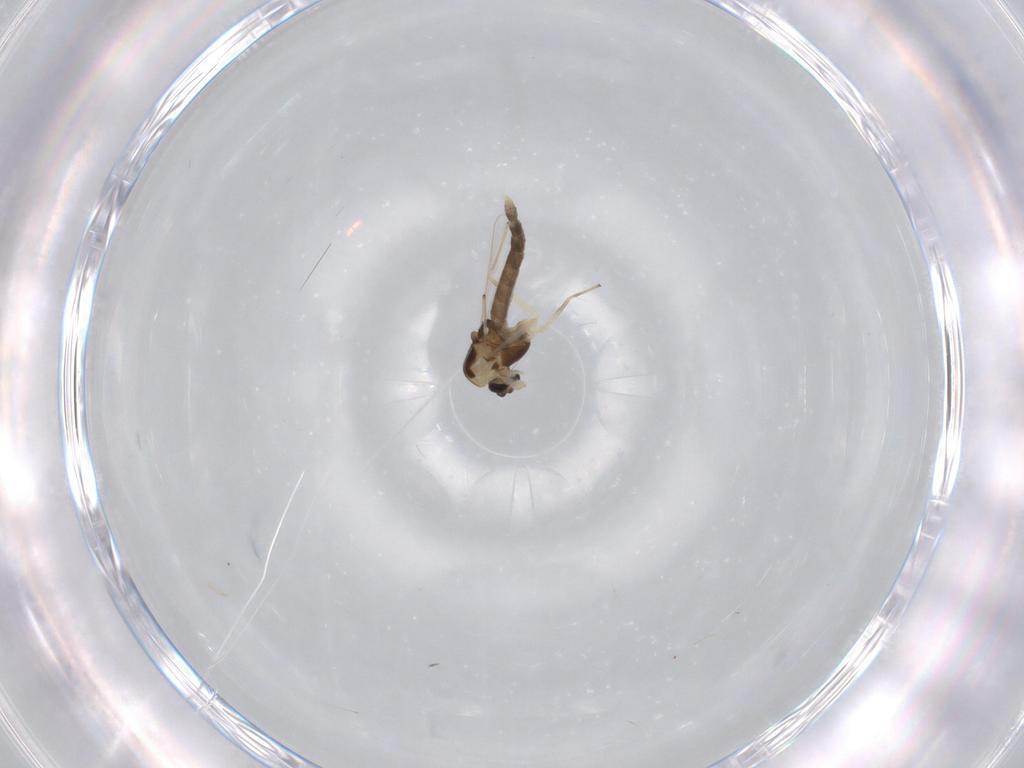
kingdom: Animalia
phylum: Arthropoda
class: Insecta
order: Diptera
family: Chironomidae
